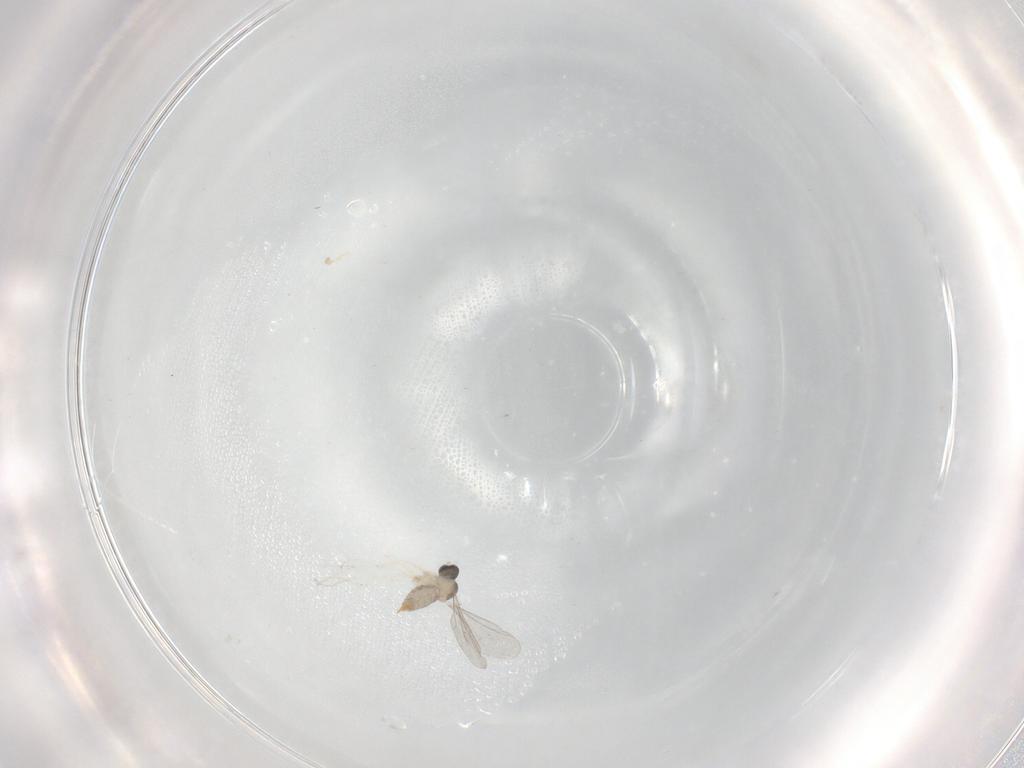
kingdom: Animalia
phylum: Arthropoda
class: Insecta
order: Diptera
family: Cecidomyiidae
